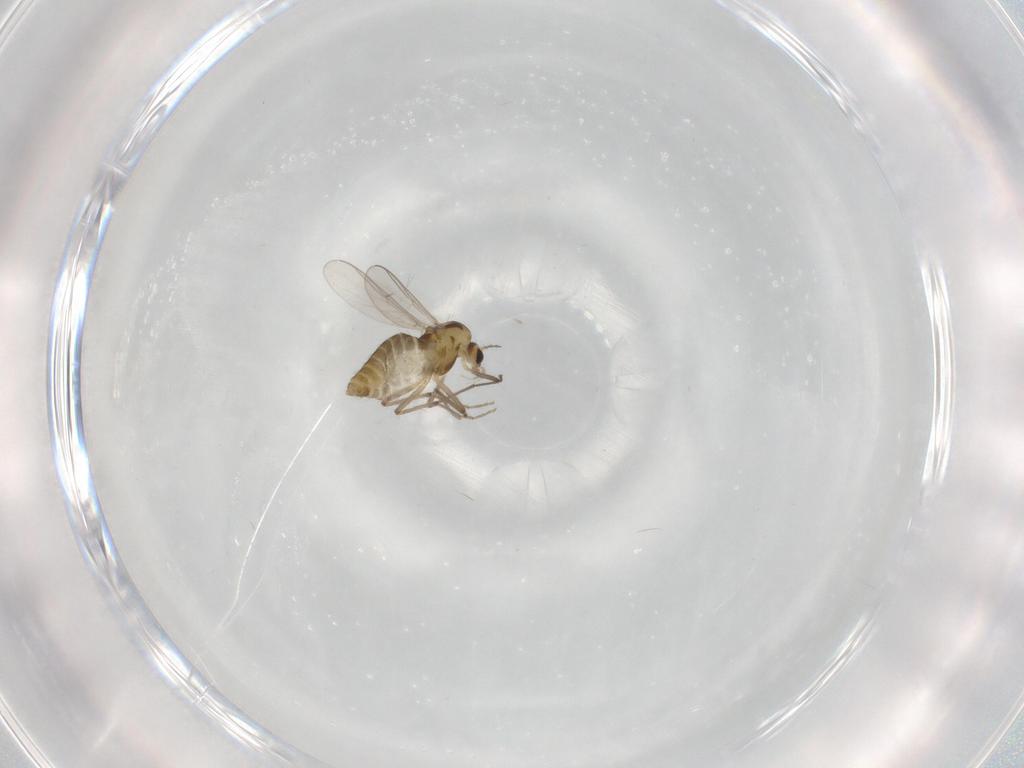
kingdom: Animalia
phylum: Arthropoda
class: Insecta
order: Diptera
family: Chironomidae
